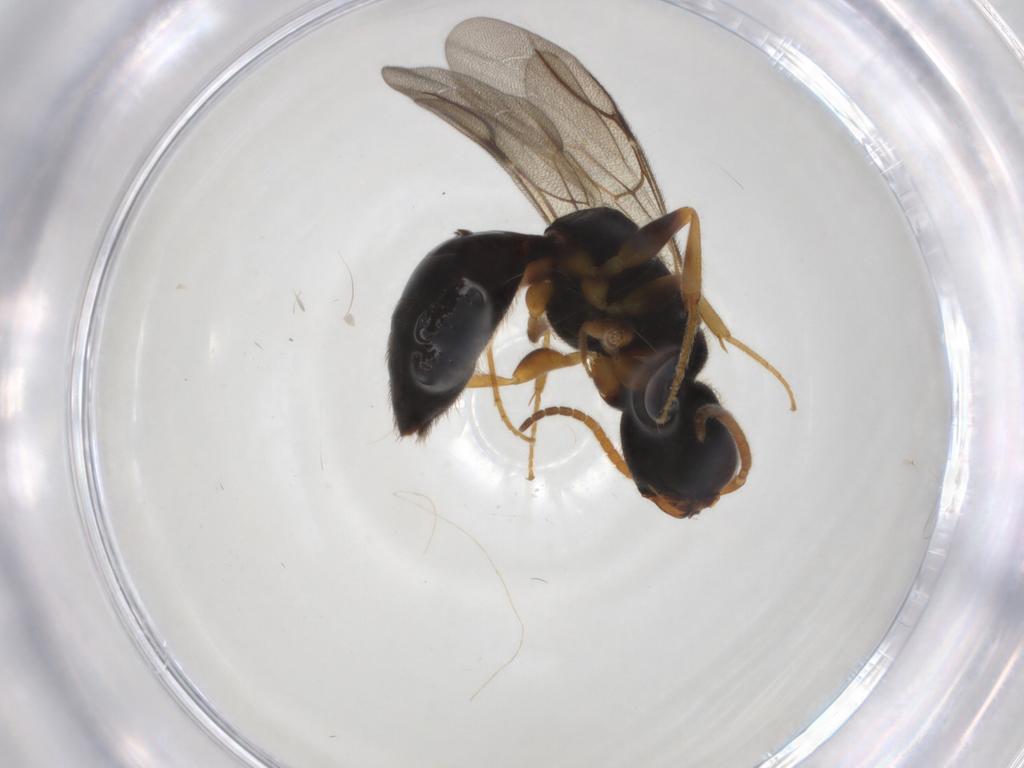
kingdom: Animalia
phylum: Arthropoda
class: Insecta
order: Hymenoptera
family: Bethylidae
